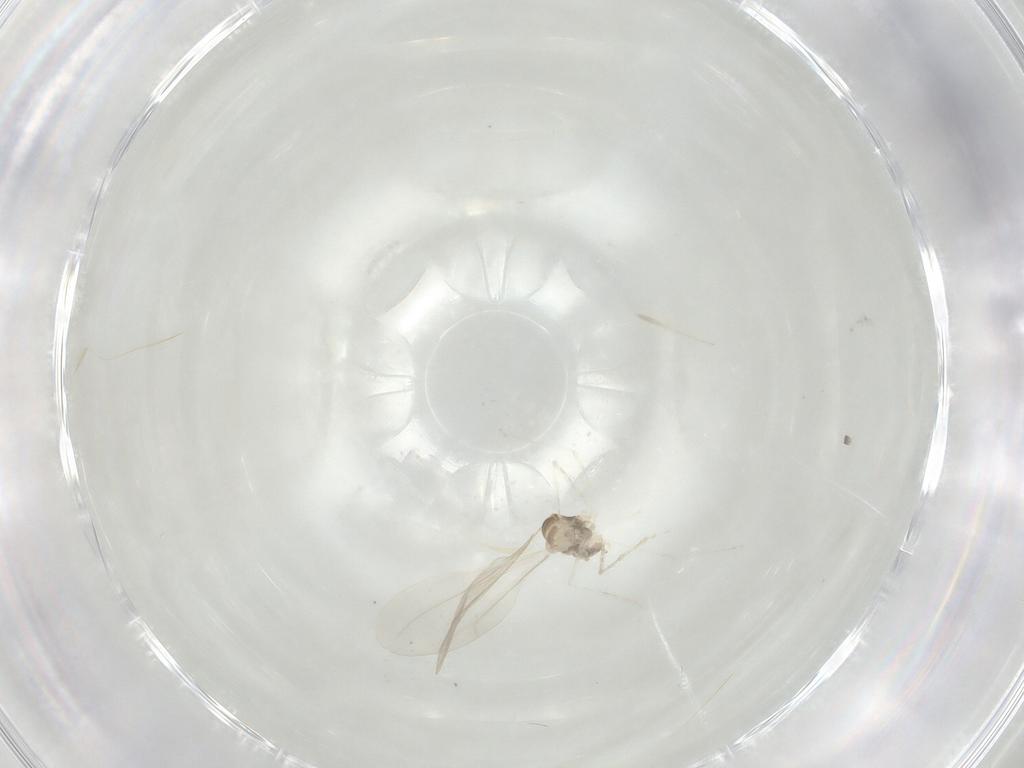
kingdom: Animalia
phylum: Arthropoda
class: Insecta
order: Diptera
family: Cecidomyiidae
